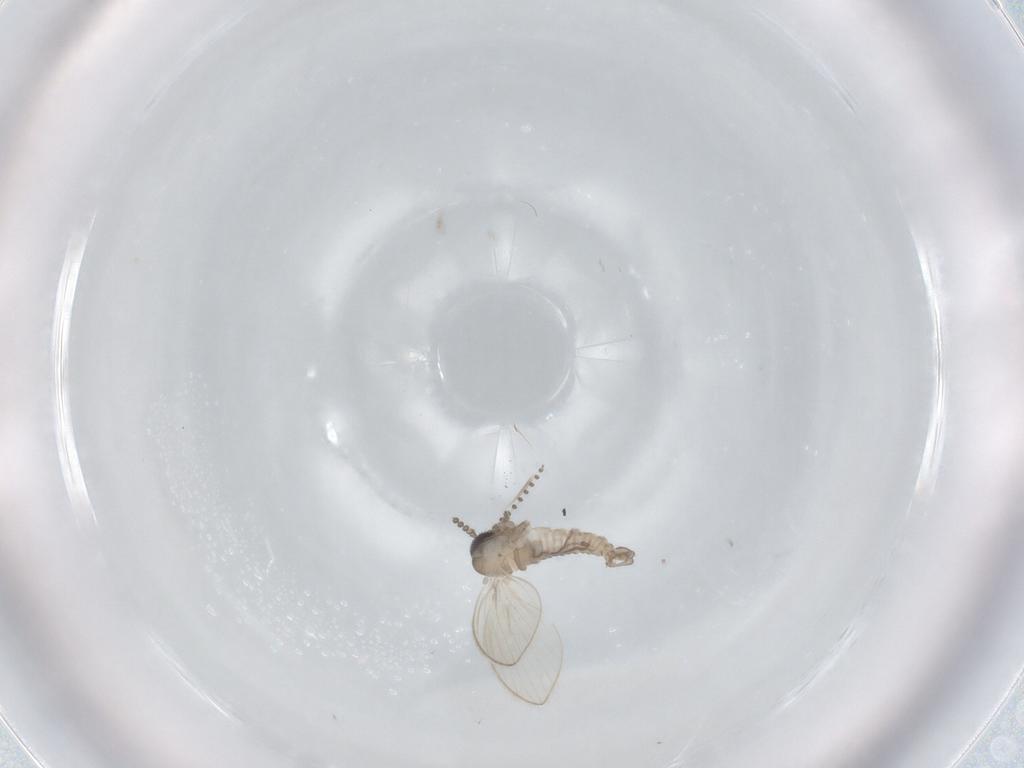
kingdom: Animalia
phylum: Arthropoda
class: Insecta
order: Diptera
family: Psychodidae
